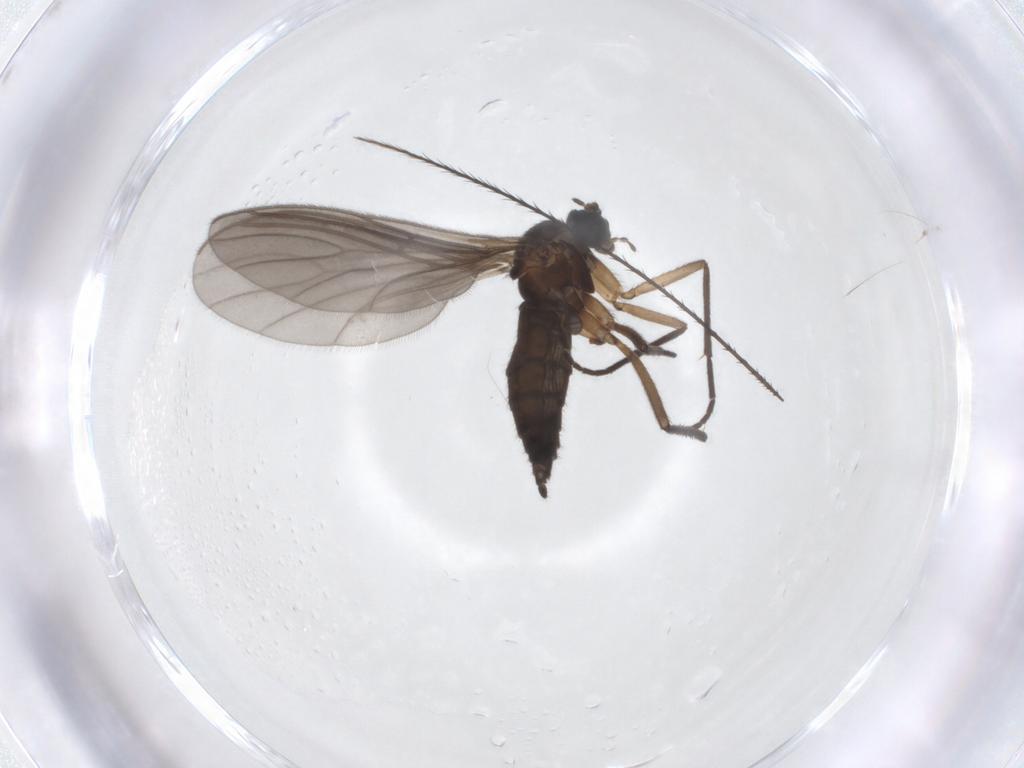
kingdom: Animalia
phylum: Arthropoda
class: Insecta
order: Diptera
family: Sciaridae
